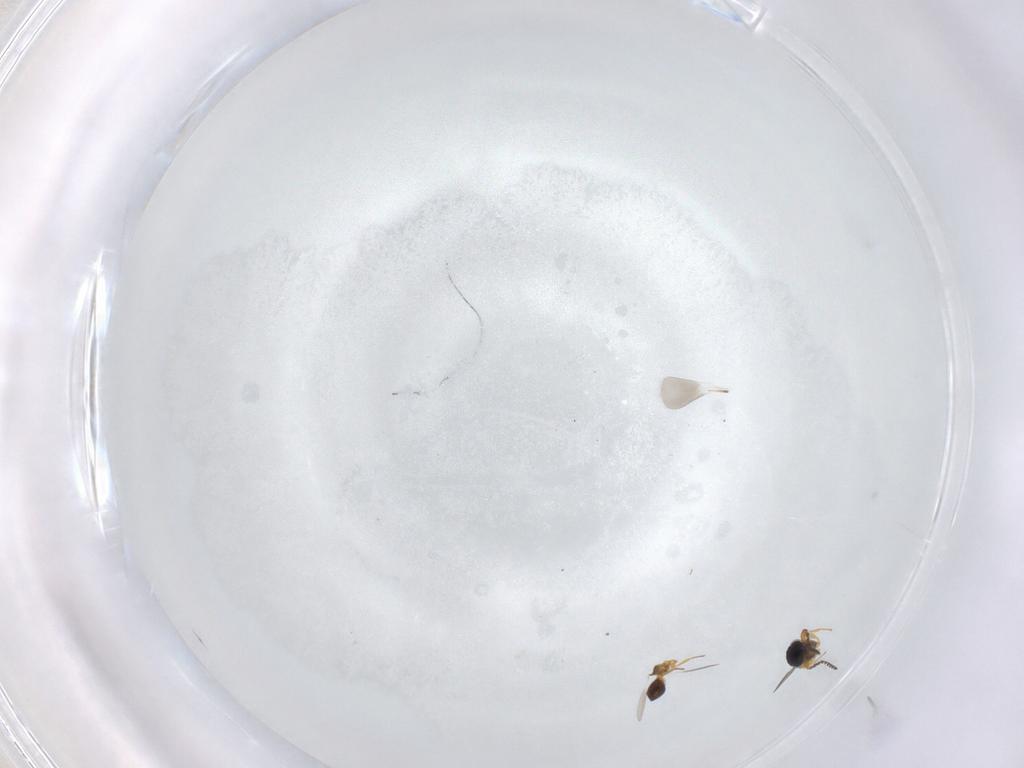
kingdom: Animalia
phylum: Arthropoda
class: Insecta
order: Hymenoptera
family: Platygastridae
